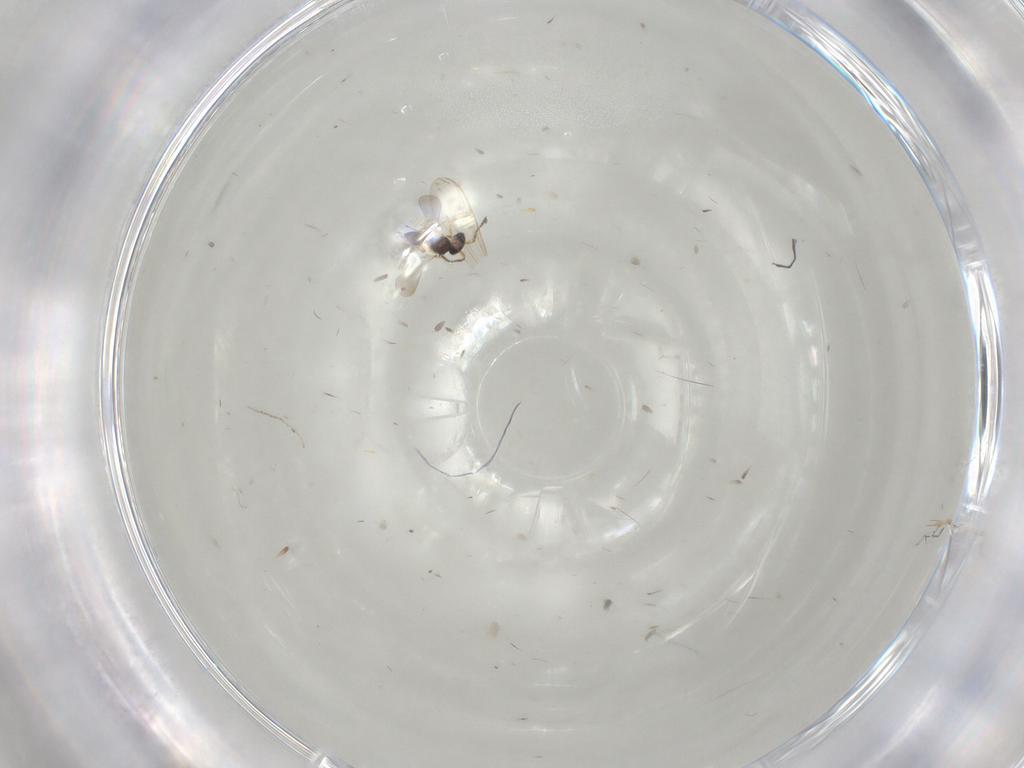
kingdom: Animalia
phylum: Arthropoda
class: Insecta
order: Hymenoptera
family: Platygastridae
